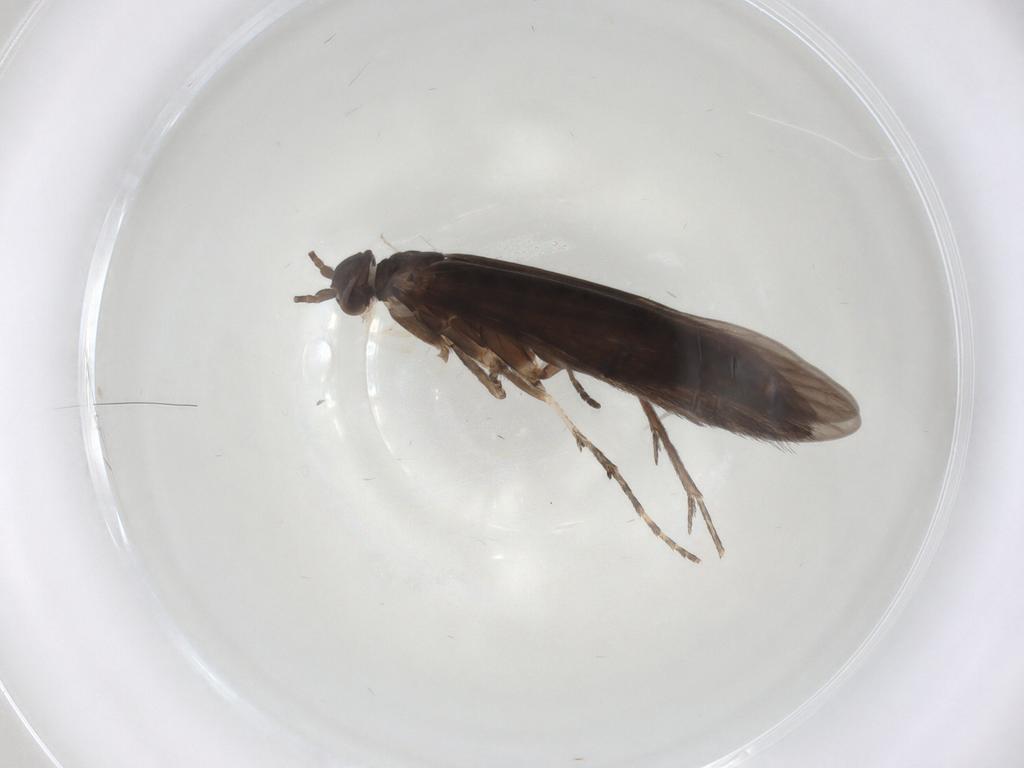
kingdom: Animalia
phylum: Arthropoda
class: Insecta
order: Trichoptera
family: Xiphocentronidae
